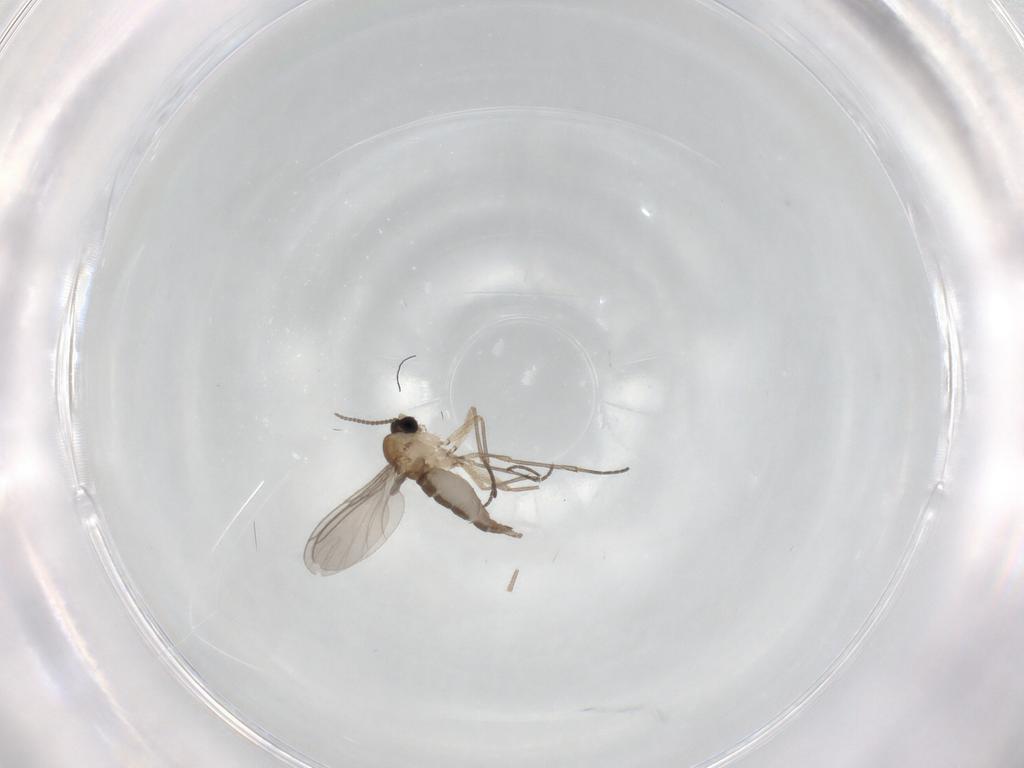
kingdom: Animalia
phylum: Arthropoda
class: Insecta
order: Diptera
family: Sciaridae
